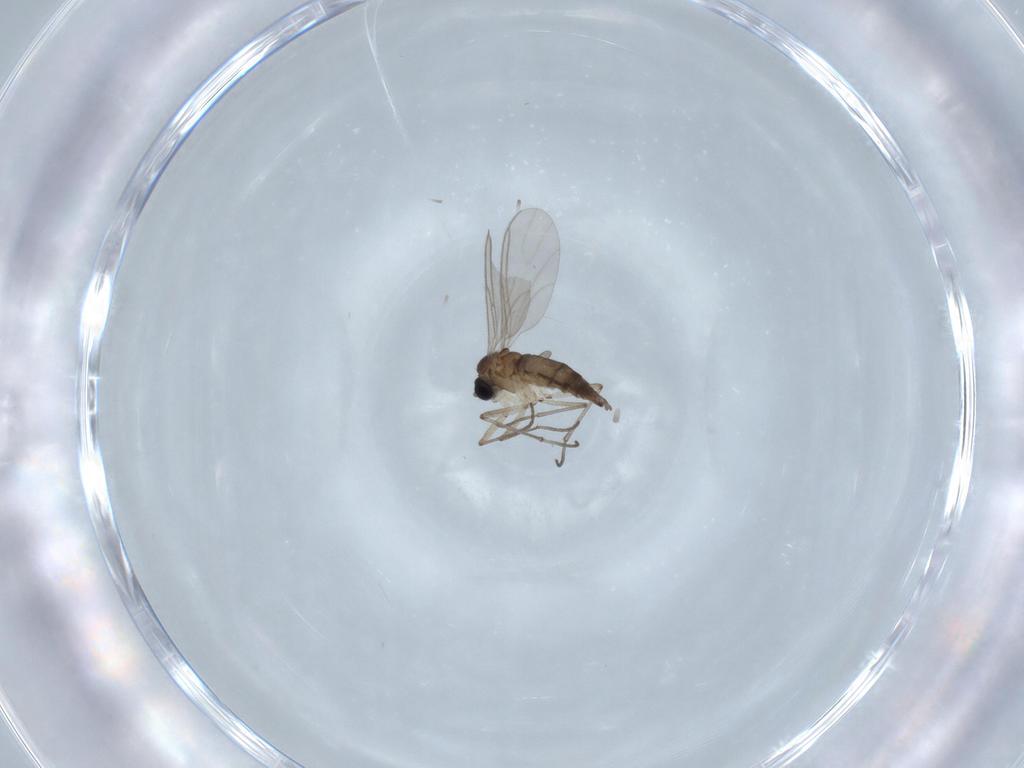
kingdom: Animalia
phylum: Arthropoda
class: Insecta
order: Diptera
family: Sciaridae
